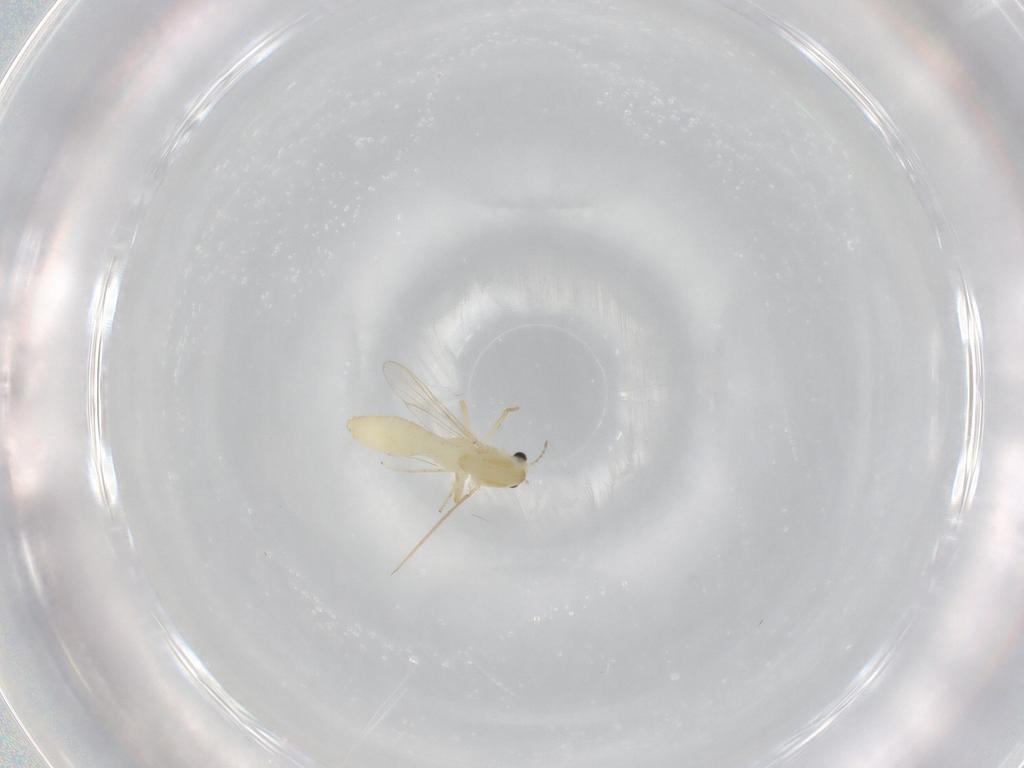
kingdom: Animalia
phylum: Arthropoda
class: Insecta
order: Diptera
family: Chironomidae
